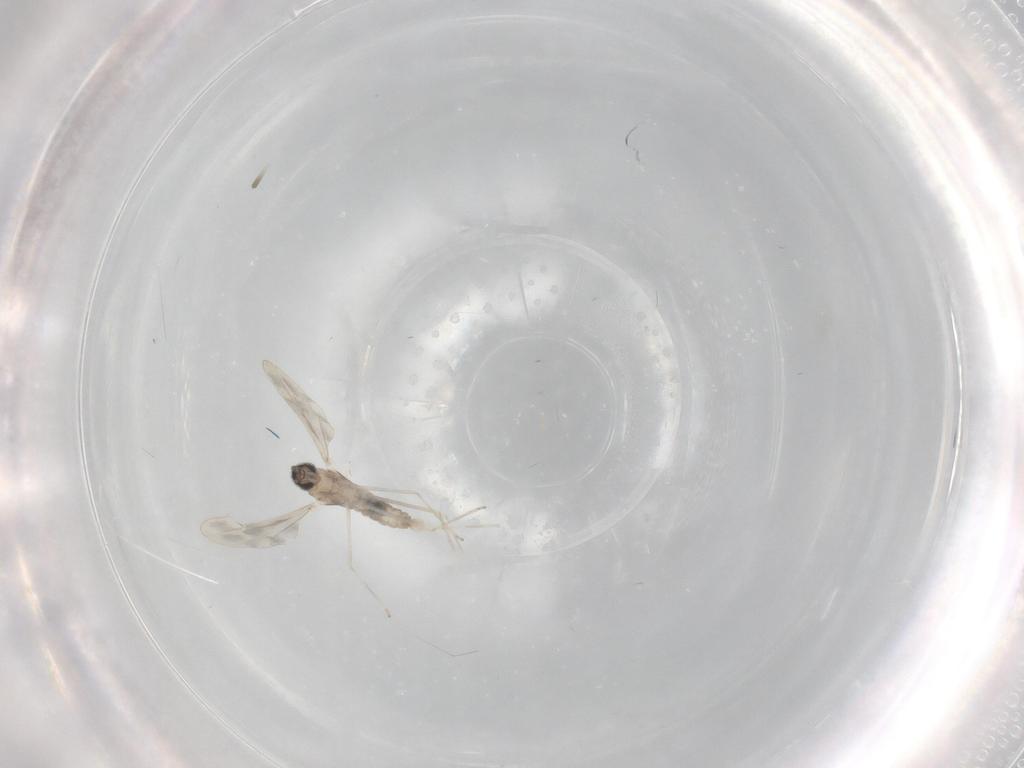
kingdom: Animalia
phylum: Arthropoda
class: Insecta
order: Diptera
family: Cecidomyiidae
